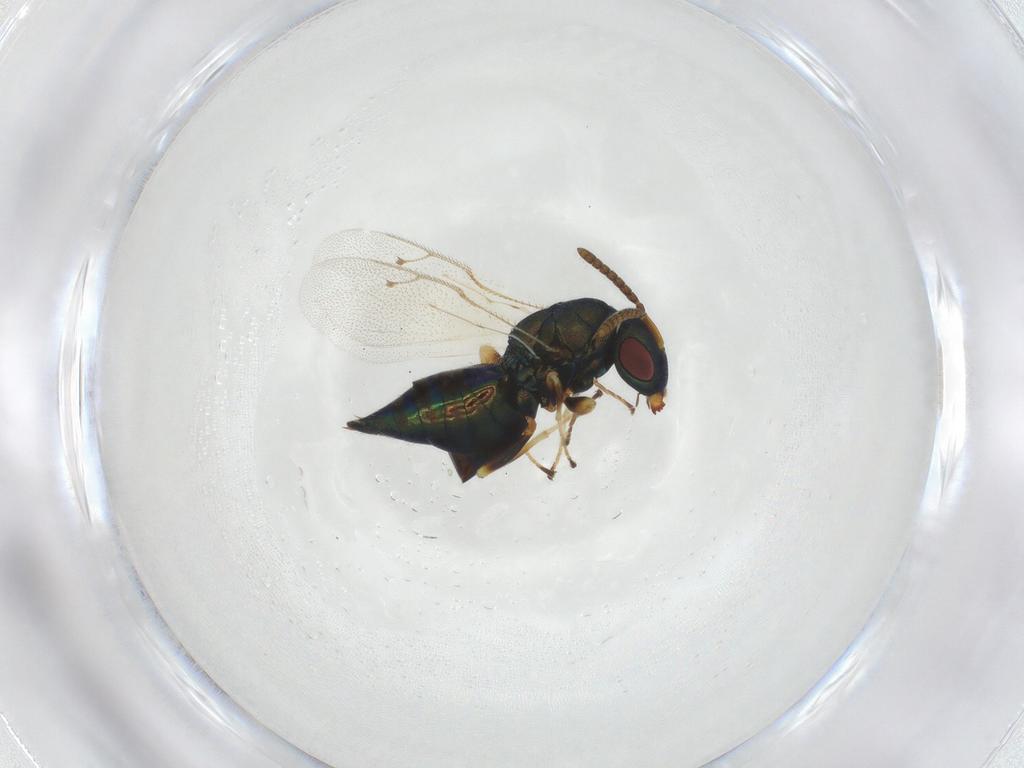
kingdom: Animalia
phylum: Arthropoda
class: Insecta
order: Hymenoptera
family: Pteromalidae
